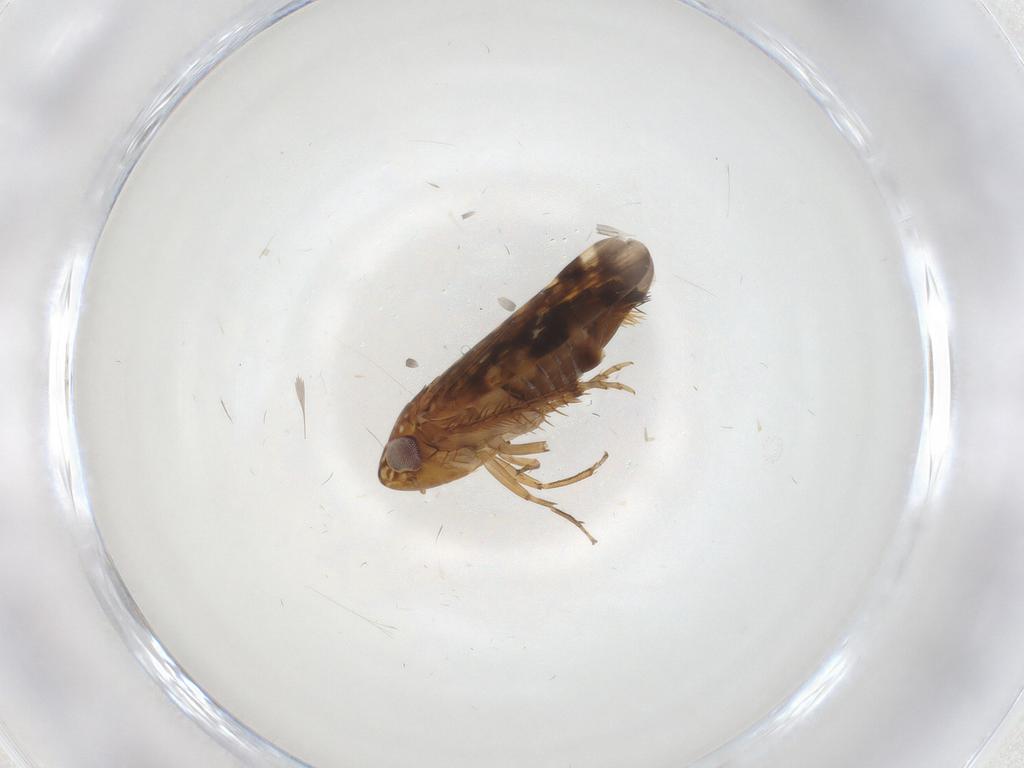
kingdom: Animalia
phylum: Arthropoda
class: Insecta
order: Hemiptera
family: Cicadellidae
